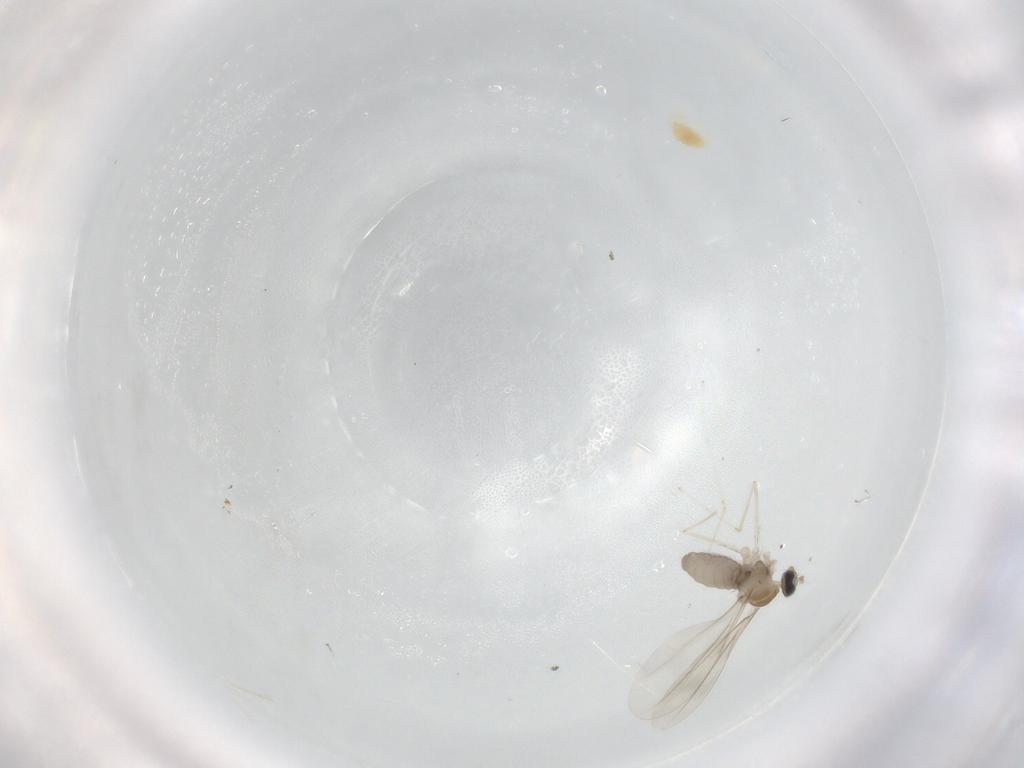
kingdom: Animalia
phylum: Arthropoda
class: Insecta
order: Diptera
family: Cecidomyiidae
